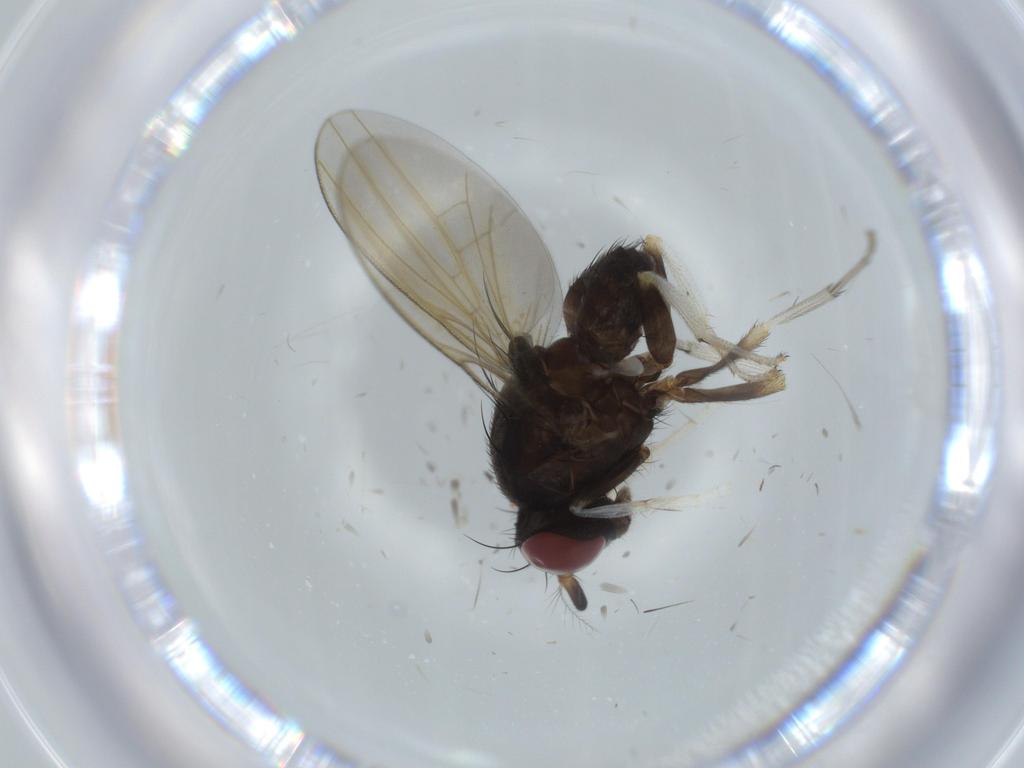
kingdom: Animalia
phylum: Arthropoda
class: Insecta
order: Diptera
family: Lauxaniidae
